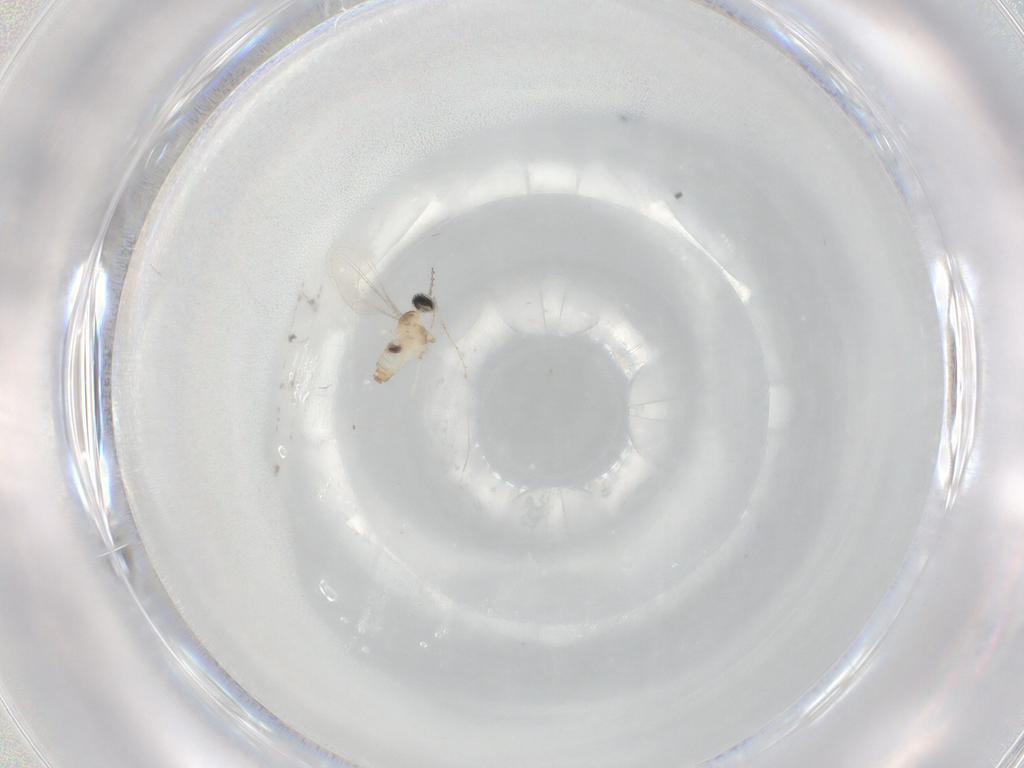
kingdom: Animalia
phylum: Arthropoda
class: Insecta
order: Diptera
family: Cecidomyiidae
